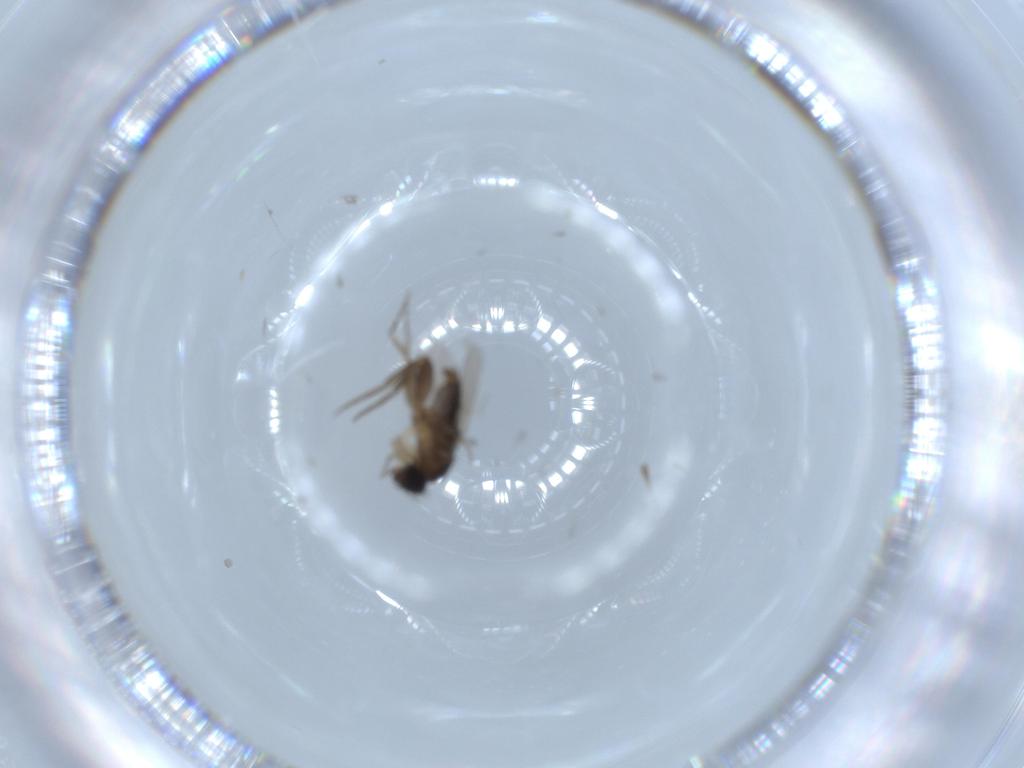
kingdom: Animalia
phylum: Arthropoda
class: Insecta
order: Diptera
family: Phoridae
